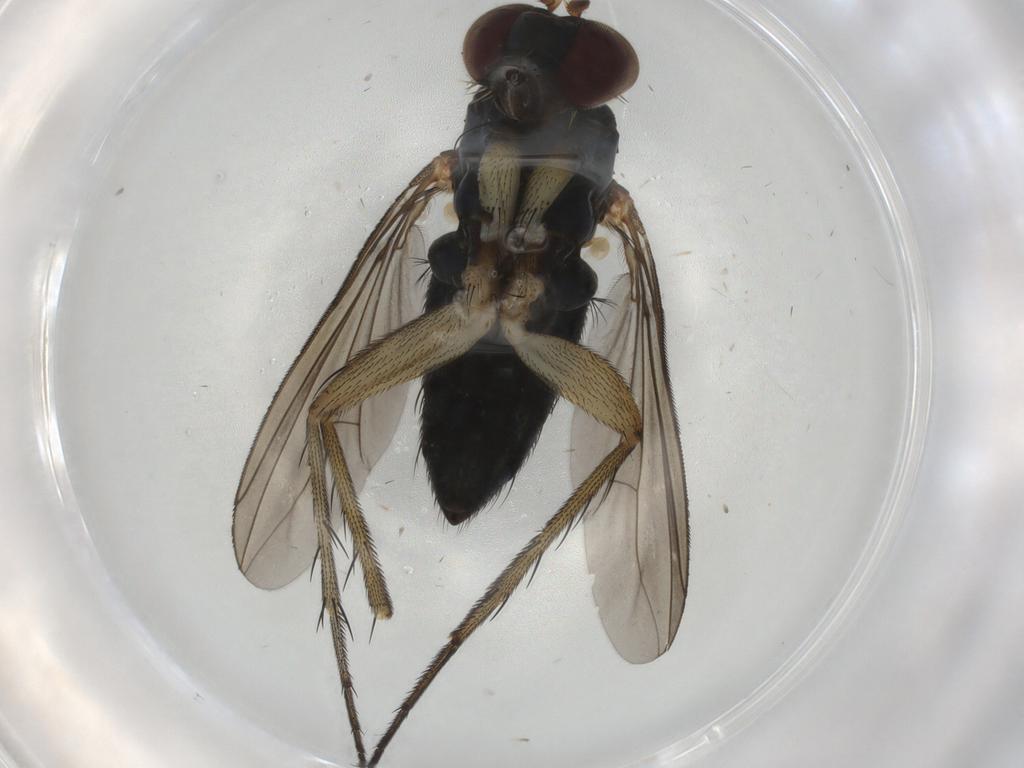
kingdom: Animalia
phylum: Arthropoda
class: Insecta
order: Diptera
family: Dolichopodidae
